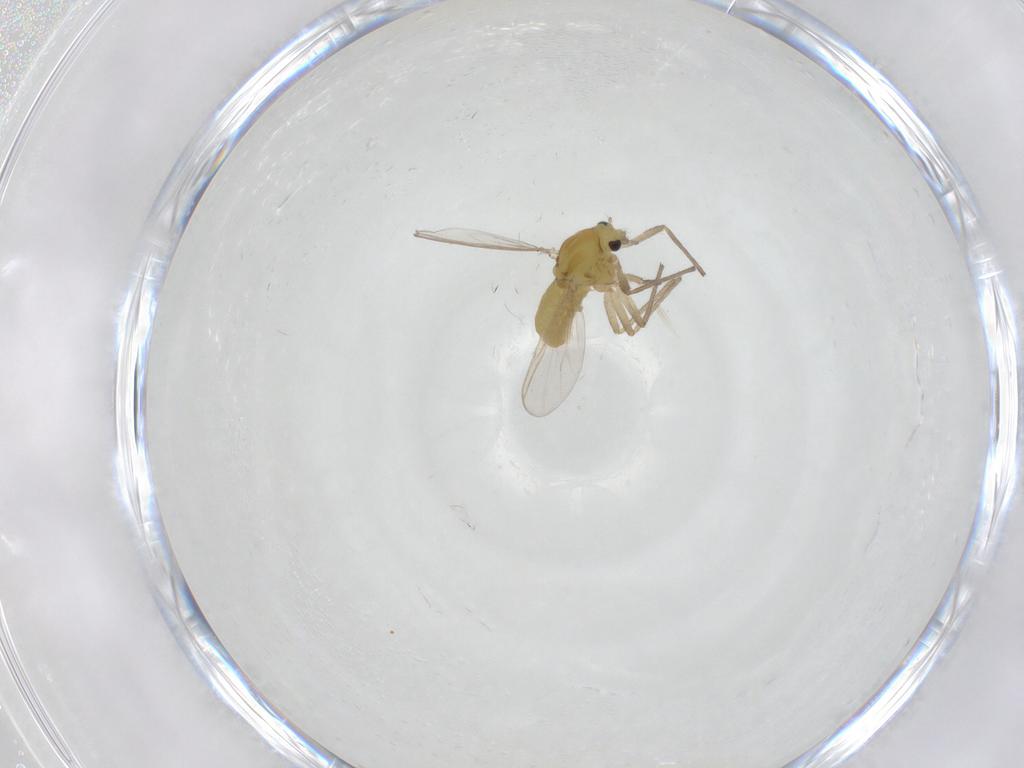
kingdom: Animalia
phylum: Arthropoda
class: Insecta
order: Diptera
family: Chironomidae
